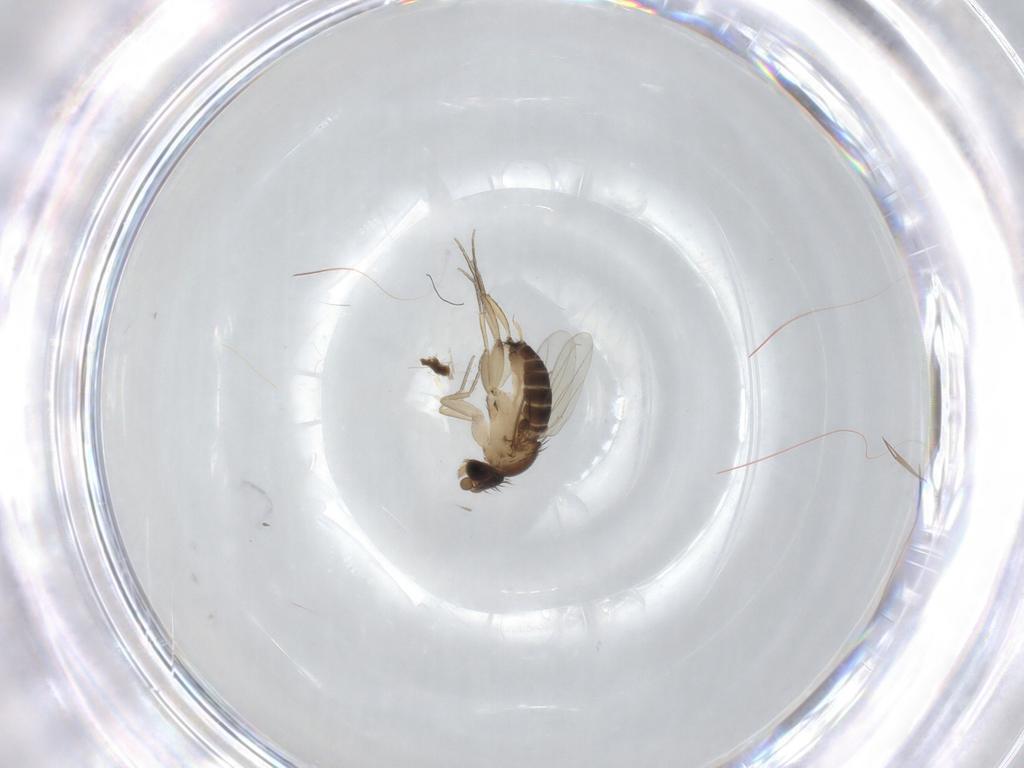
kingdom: Animalia
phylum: Arthropoda
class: Insecta
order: Diptera
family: Phoridae
